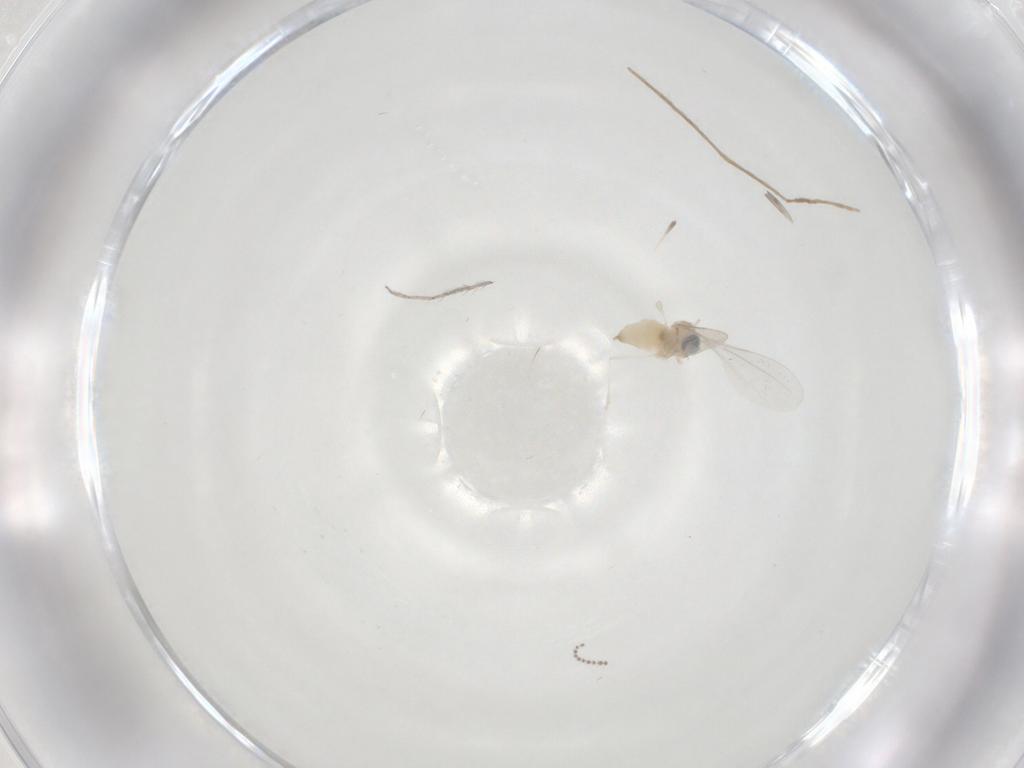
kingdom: Animalia
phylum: Arthropoda
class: Insecta
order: Diptera
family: Cecidomyiidae
